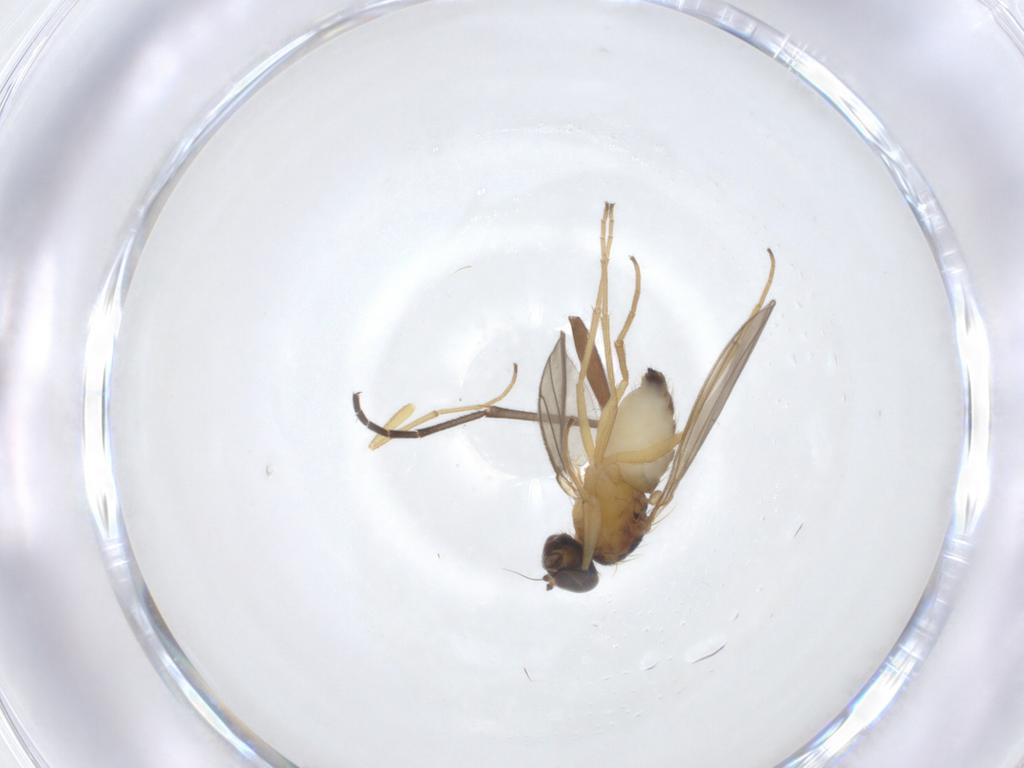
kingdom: Animalia
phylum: Arthropoda
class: Insecta
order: Diptera
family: Dolichopodidae
